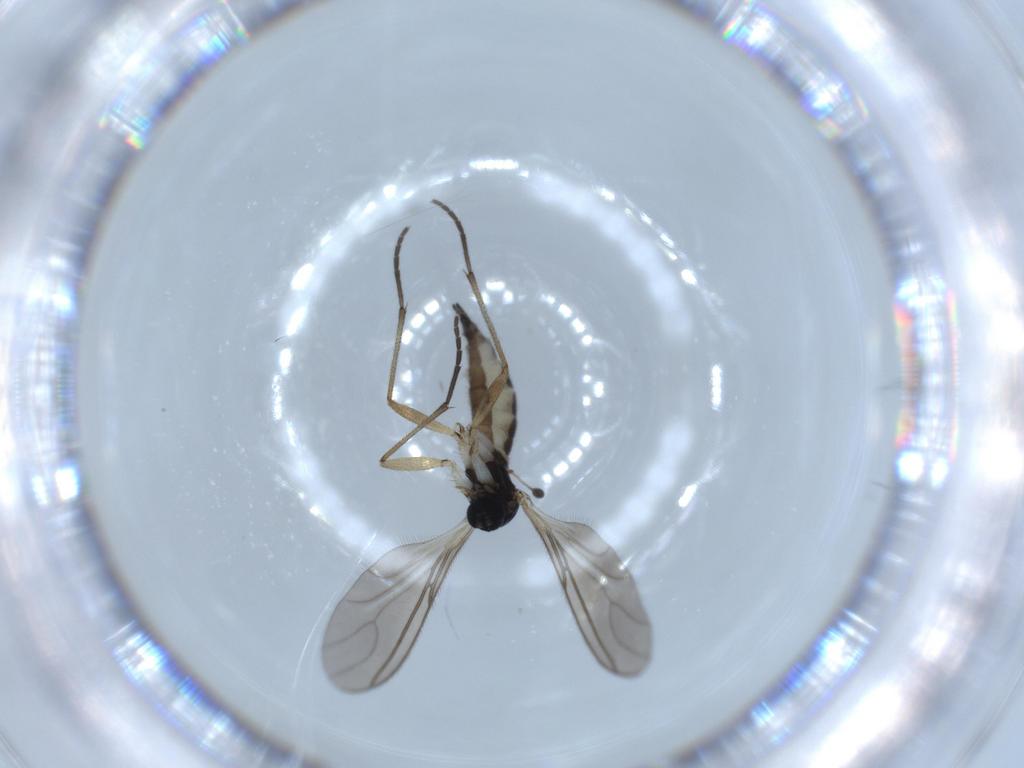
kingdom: Animalia
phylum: Arthropoda
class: Insecta
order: Diptera
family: Sciaridae
